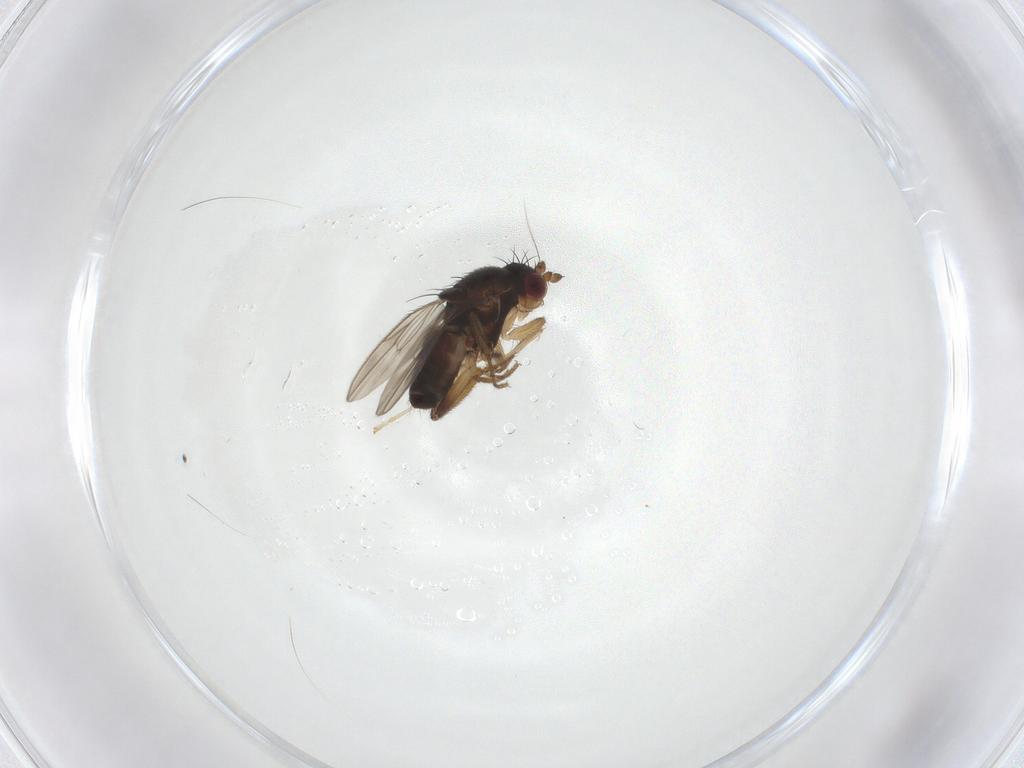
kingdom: Animalia
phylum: Arthropoda
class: Insecta
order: Diptera
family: Sphaeroceridae
